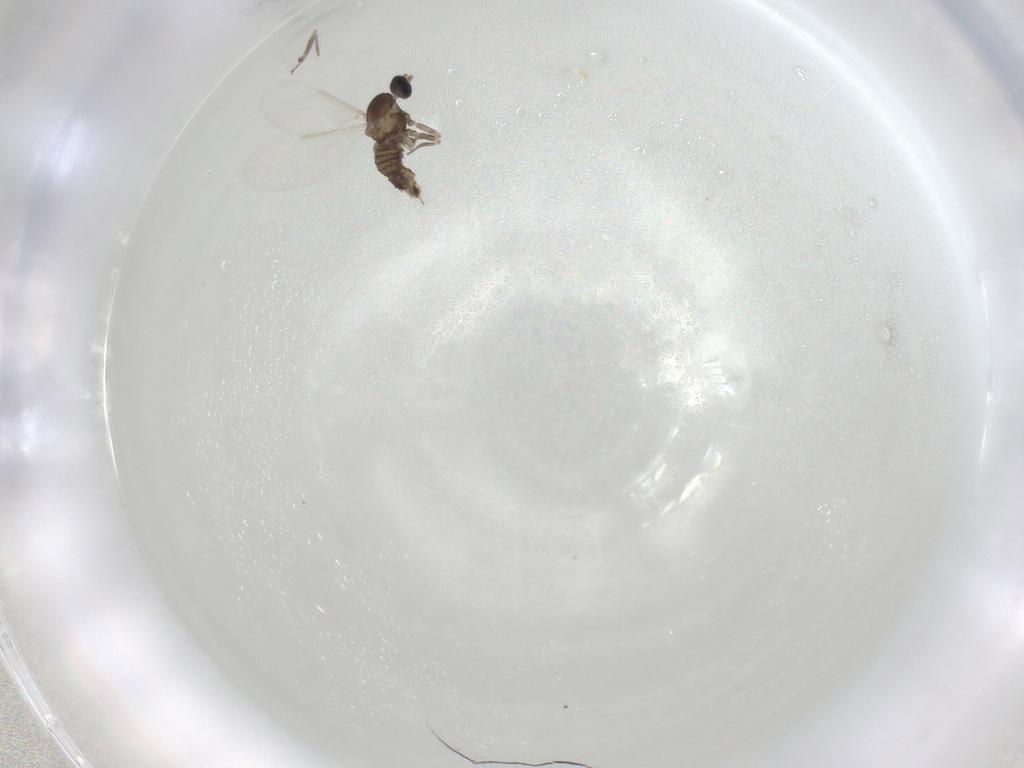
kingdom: Animalia
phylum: Arthropoda
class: Insecta
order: Diptera
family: Cecidomyiidae
